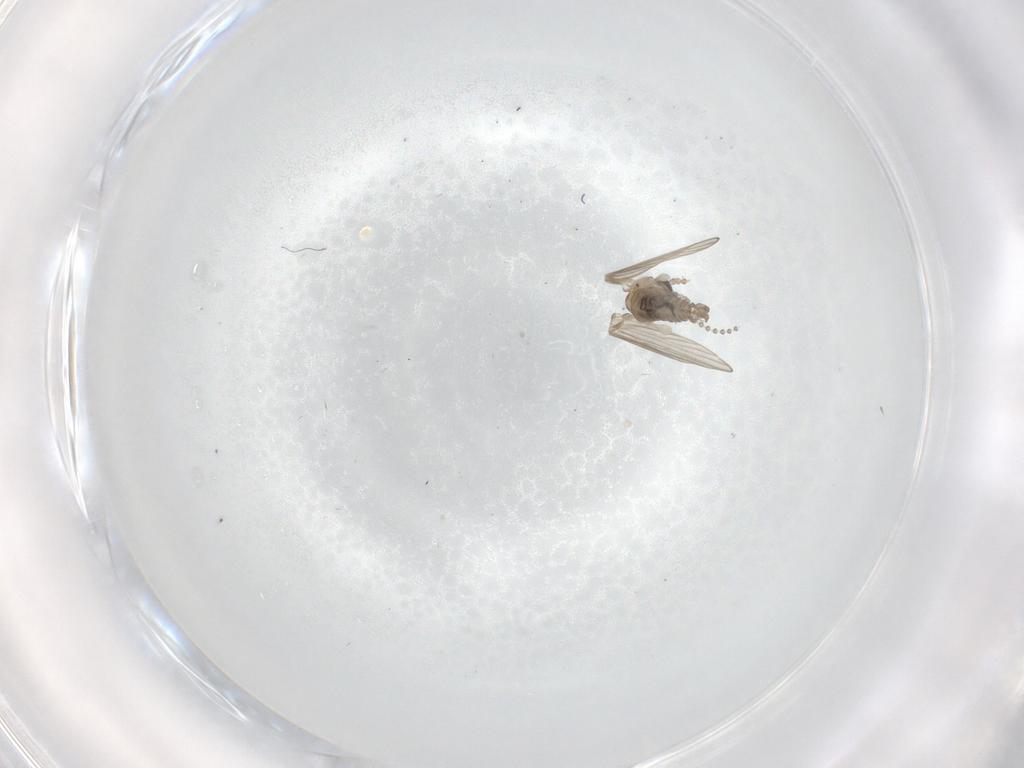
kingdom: Animalia
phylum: Arthropoda
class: Insecta
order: Diptera
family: Psychodidae
